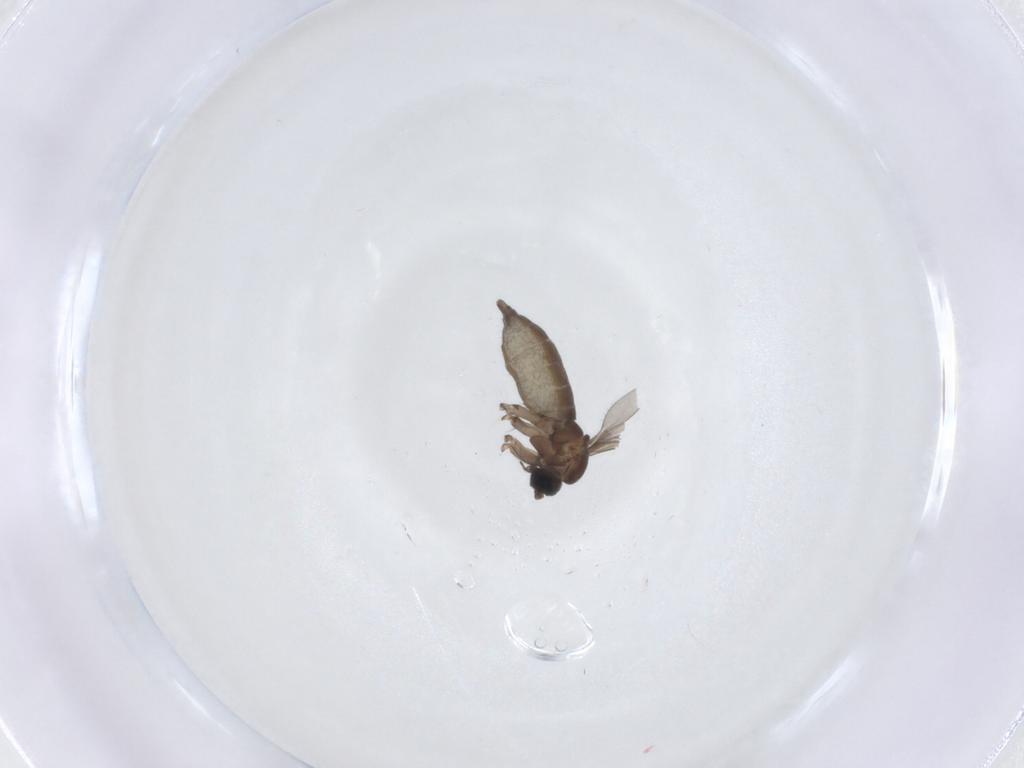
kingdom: Animalia
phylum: Arthropoda
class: Insecta
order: Diptera
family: Sciaridae
